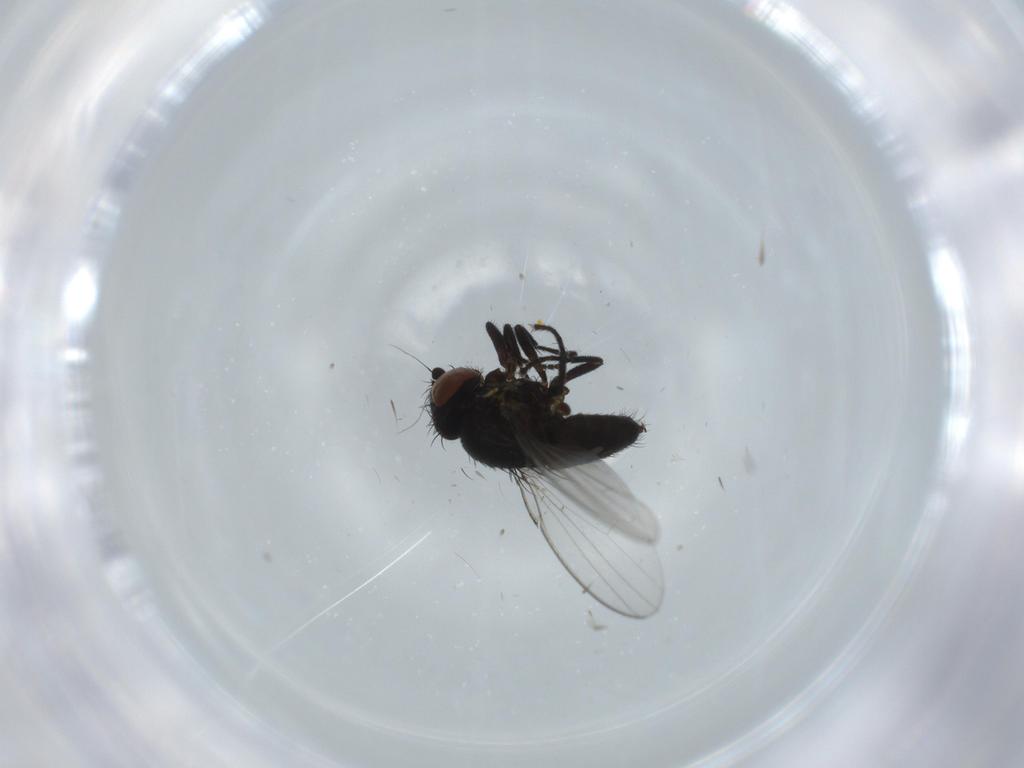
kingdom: Animalia
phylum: Arthropoda
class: Insecta
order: Diptera
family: Milichiidae
